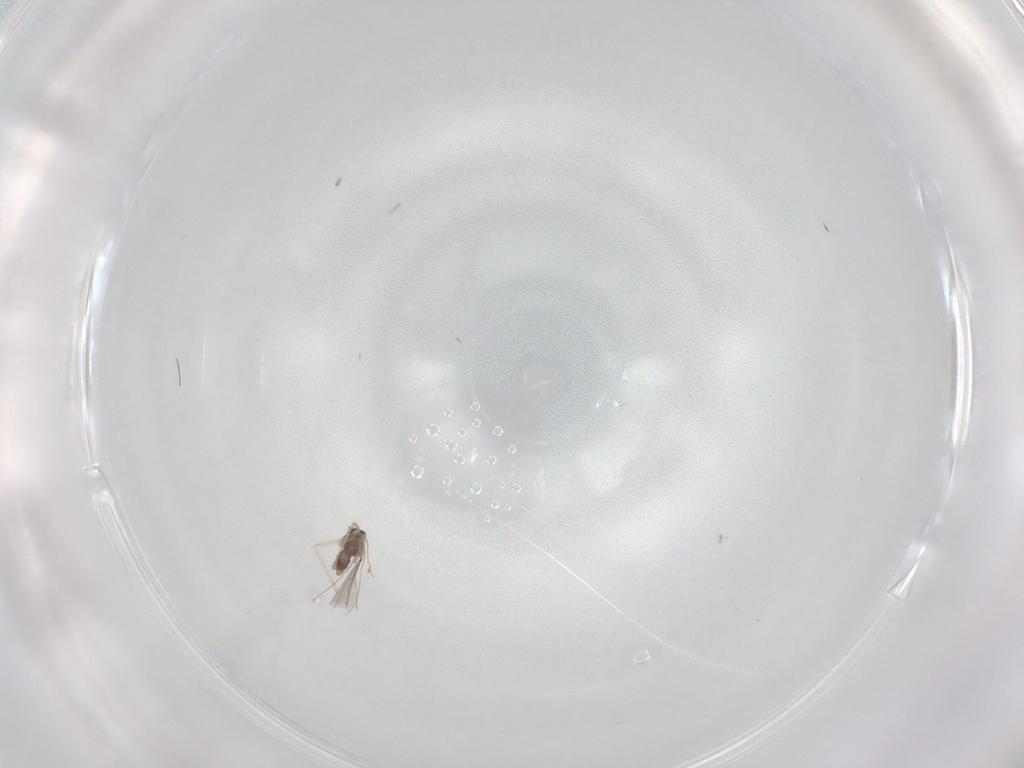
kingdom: Animalia
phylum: Arthropoda
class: Insecta
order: Diptera
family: Cecidomyiidae
